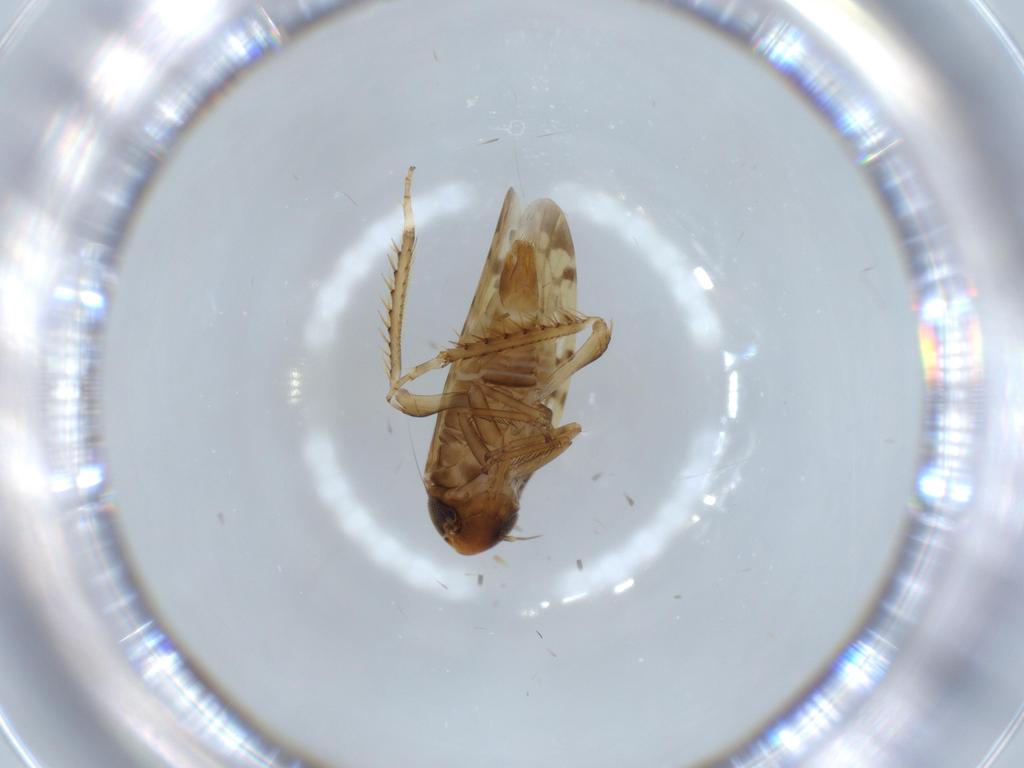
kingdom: Animalia
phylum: Arthropoda
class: Insecta
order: Hemiptera
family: Cicadellidae
